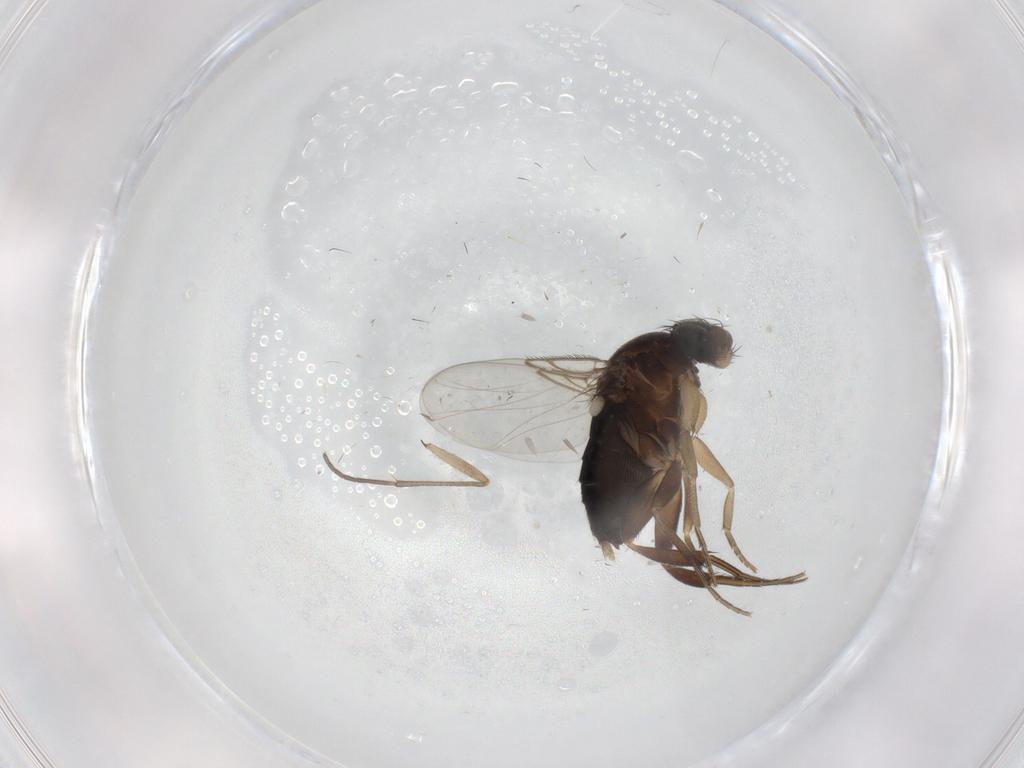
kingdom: Animalia
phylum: Arthropoda
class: Insecta
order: Diptera
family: Phoridae
